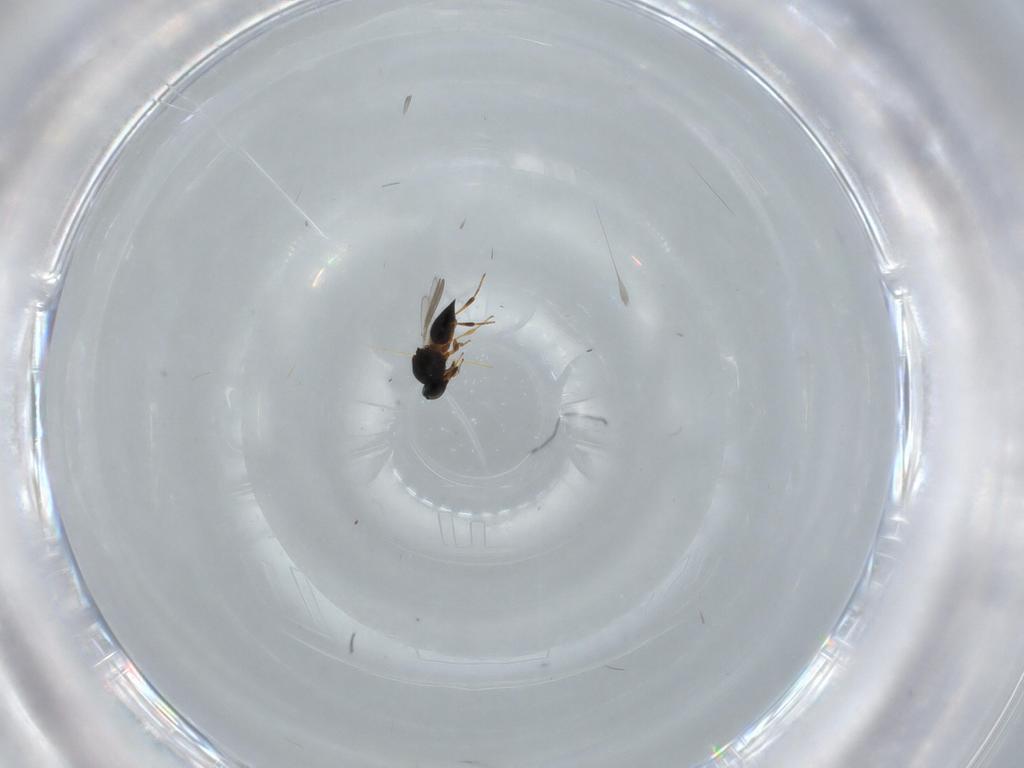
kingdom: Animalia
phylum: Arthropoda
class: Insecta
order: Hymenoptera
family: Platygastridae
